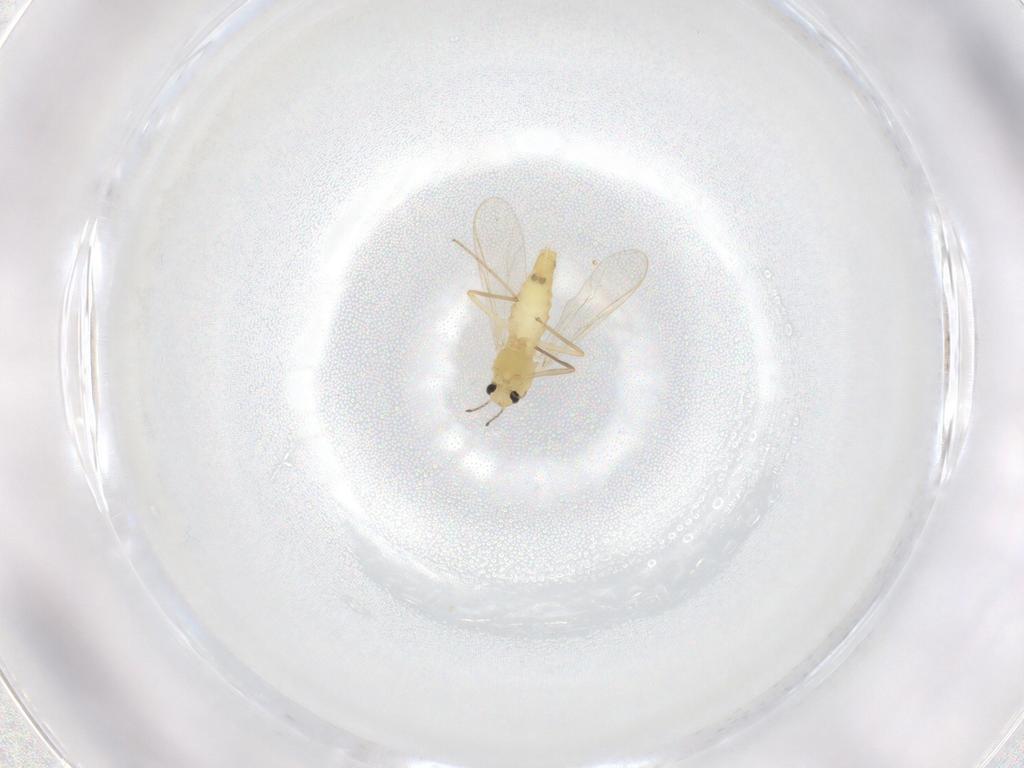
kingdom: Animalia
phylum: Arthropoda
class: Insecta
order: Diptera
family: Chironomidae
